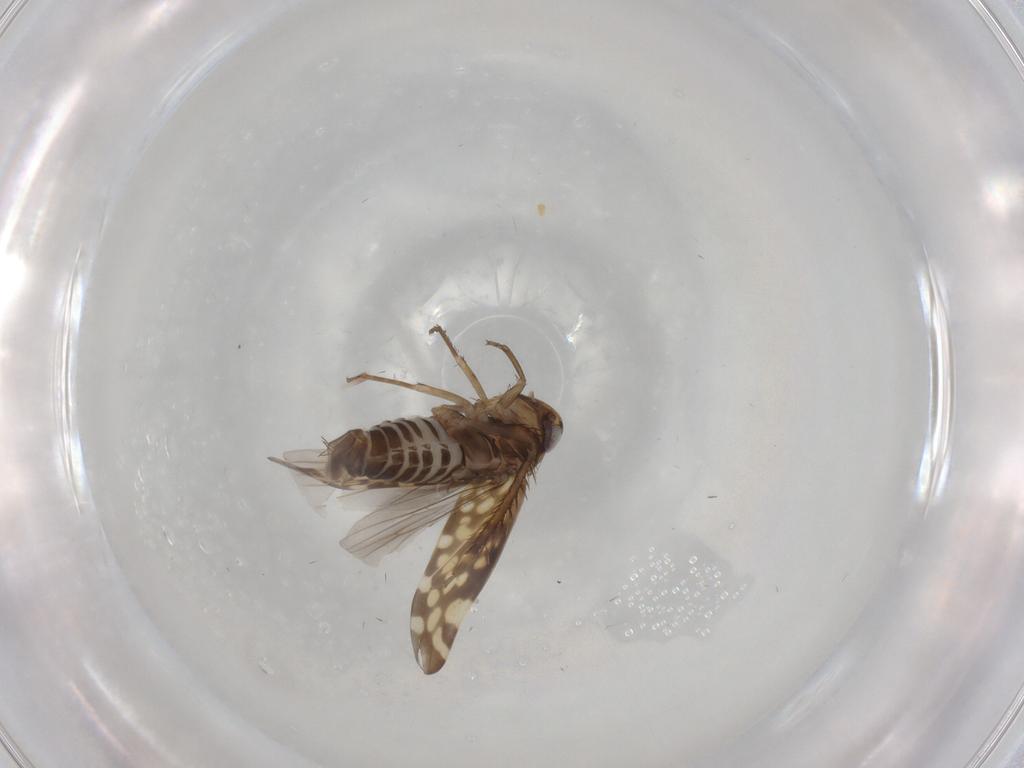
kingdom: Animalia
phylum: Arthropoda
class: Insecta
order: Hemiptera
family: Cicadellidae
